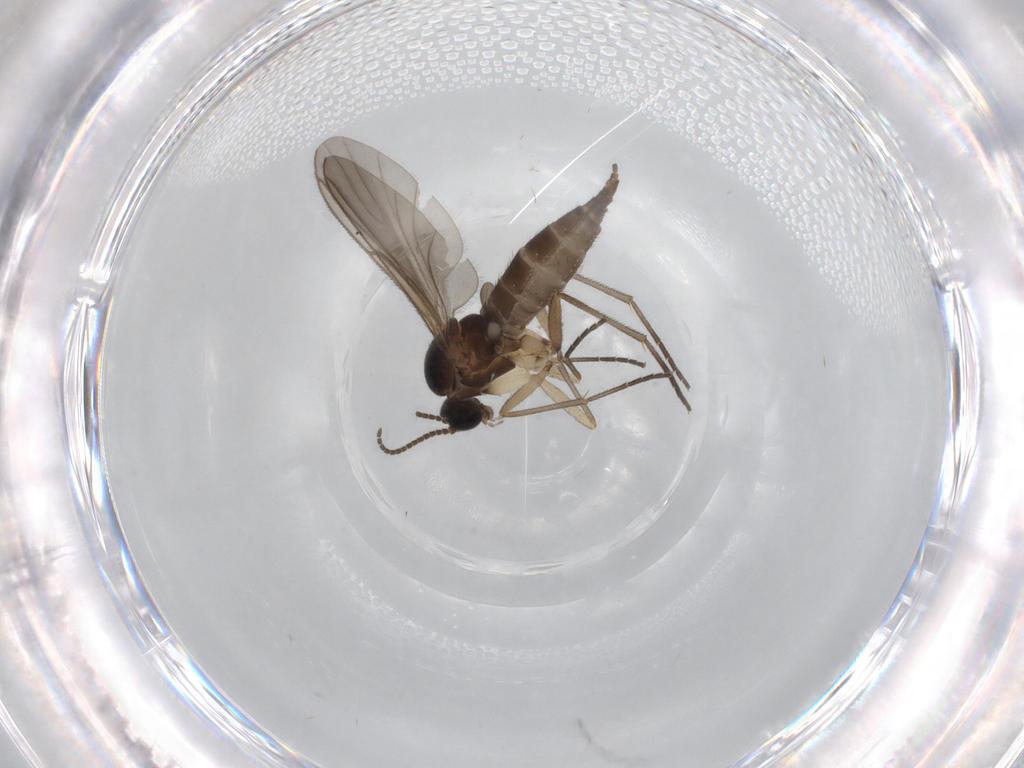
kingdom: Animalia
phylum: Arthropoda
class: Insecta
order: Diptera
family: Sciaridae
